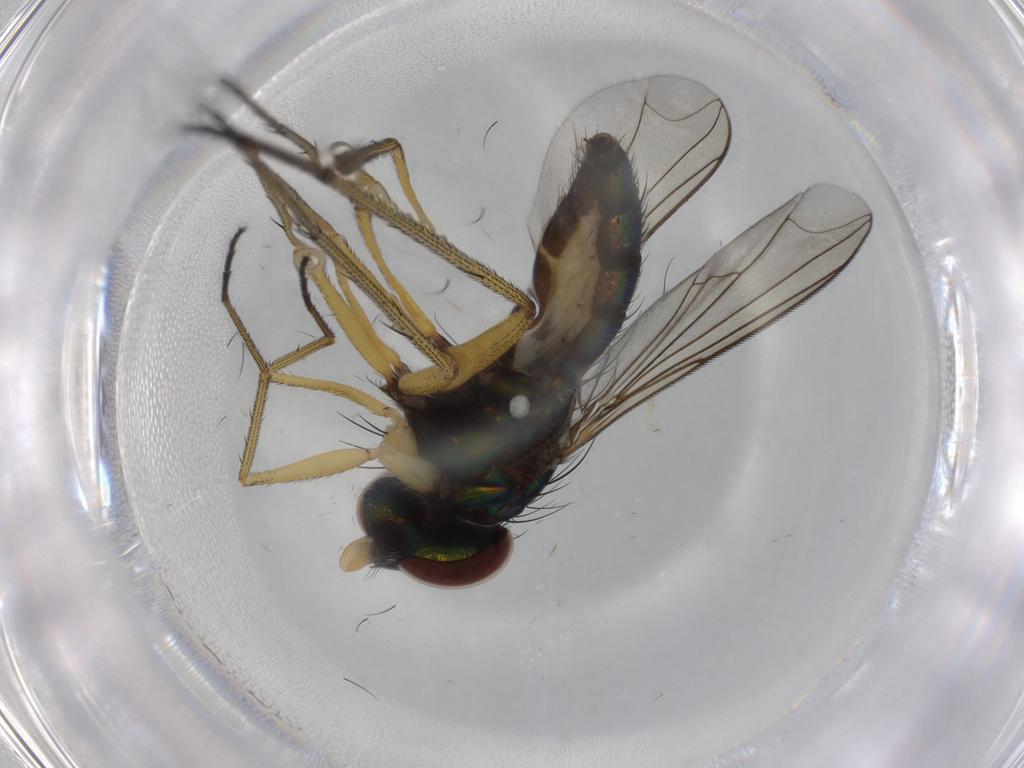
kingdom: Animalia
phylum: Arthropoda
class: Insecta
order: Diptera
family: Dolichopodidae
